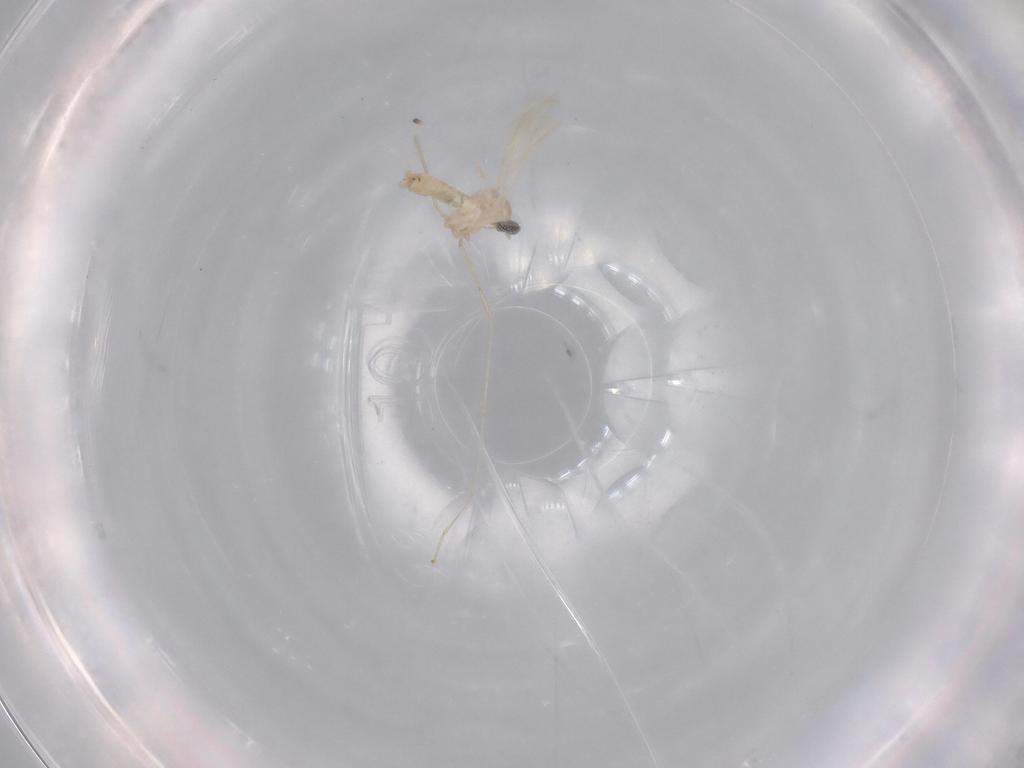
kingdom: Animalia
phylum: Arthropoda
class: Insecta
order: Diptera
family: Cecidomyiidae
